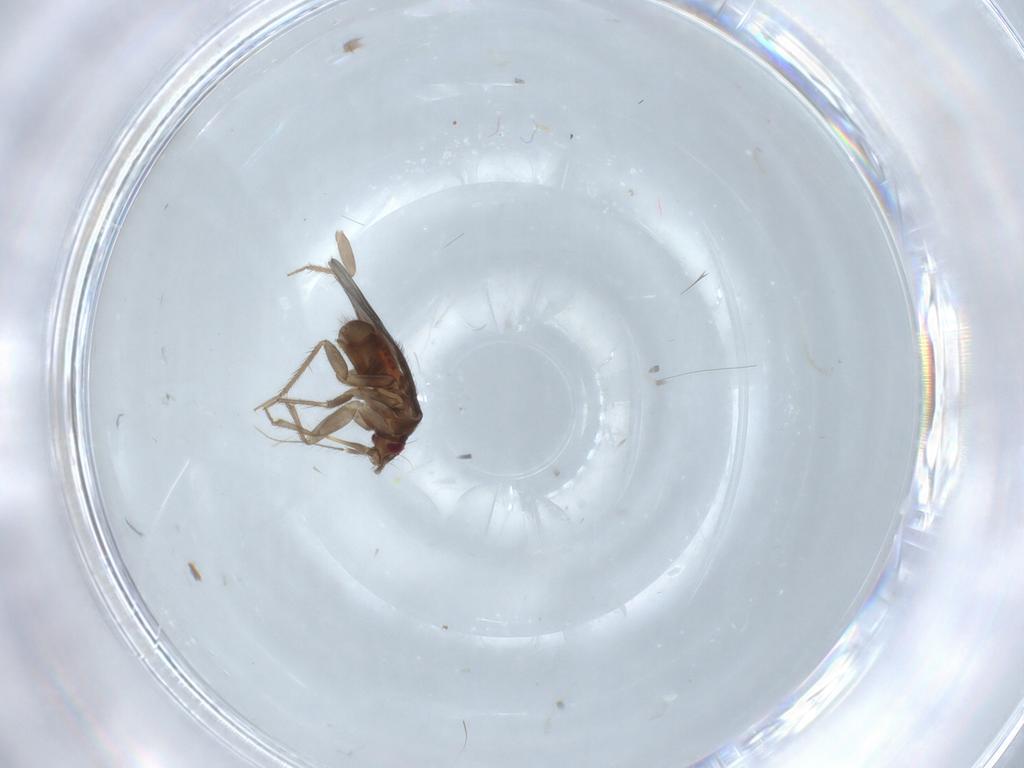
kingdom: Animalia
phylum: Arthropoda
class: Insecta
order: Hemiptera
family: Ceratocombidae
